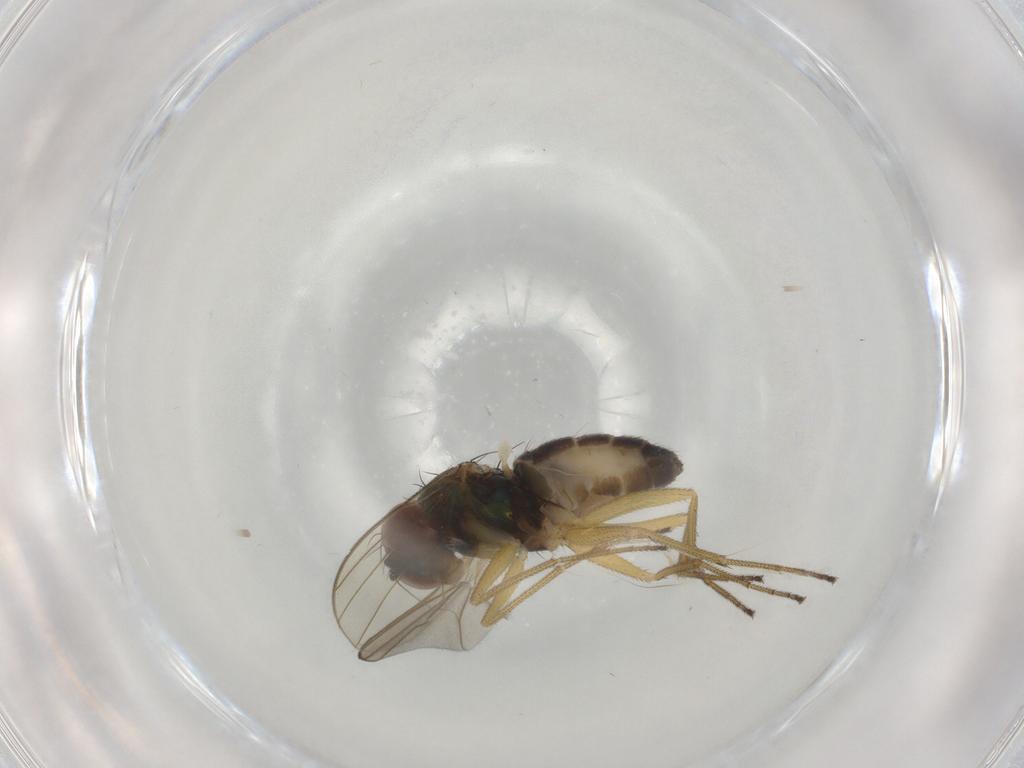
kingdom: Animalia
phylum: Arthropoda
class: Insecta
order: Diptera
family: Dolichopodidae
